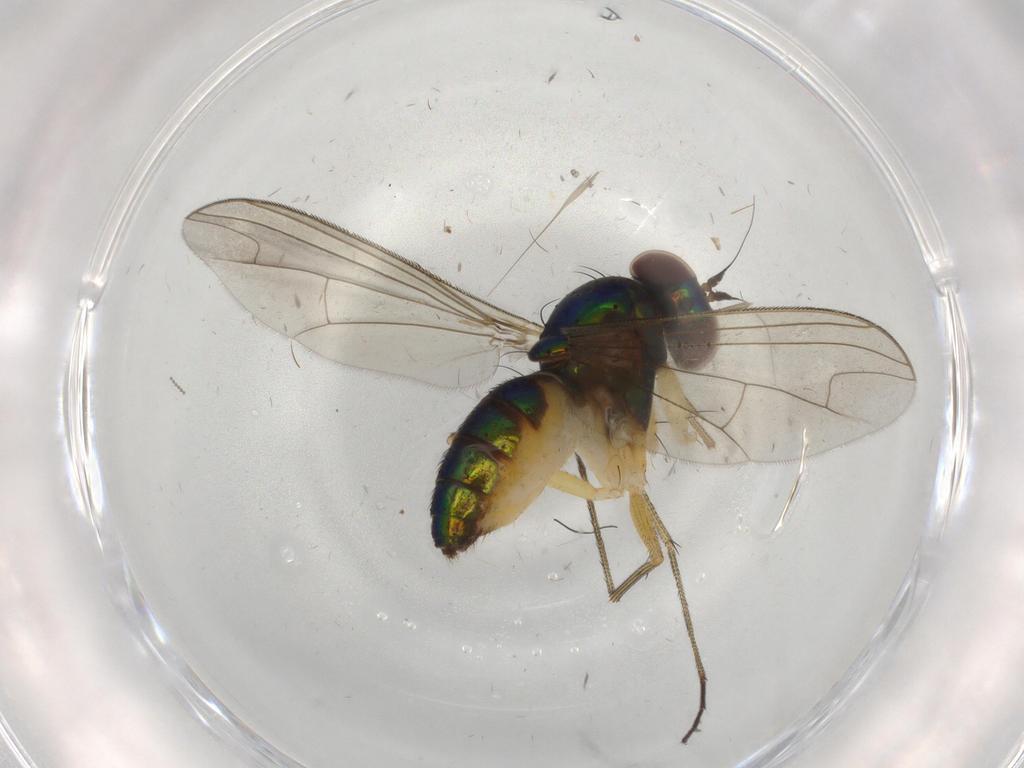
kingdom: Animalia
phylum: Arthropoda
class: Insecta
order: Diptera
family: Dolichopodidae
